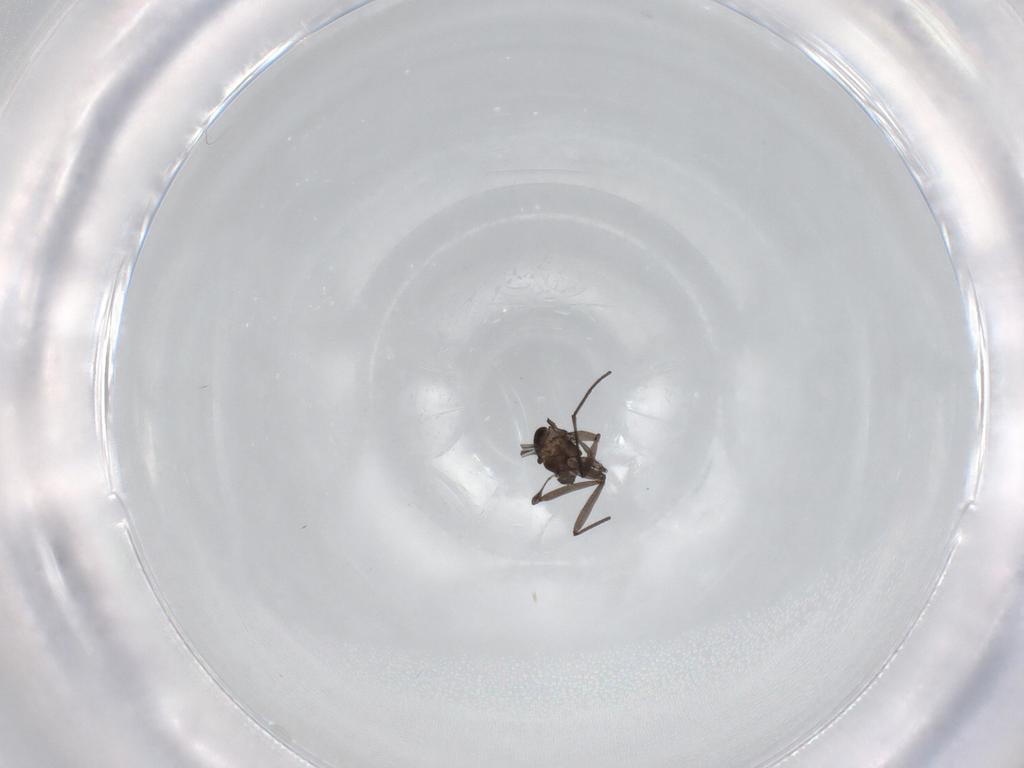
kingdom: Animalia
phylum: Arthropoda
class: Insecta
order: Diptera
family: Sciaridae
